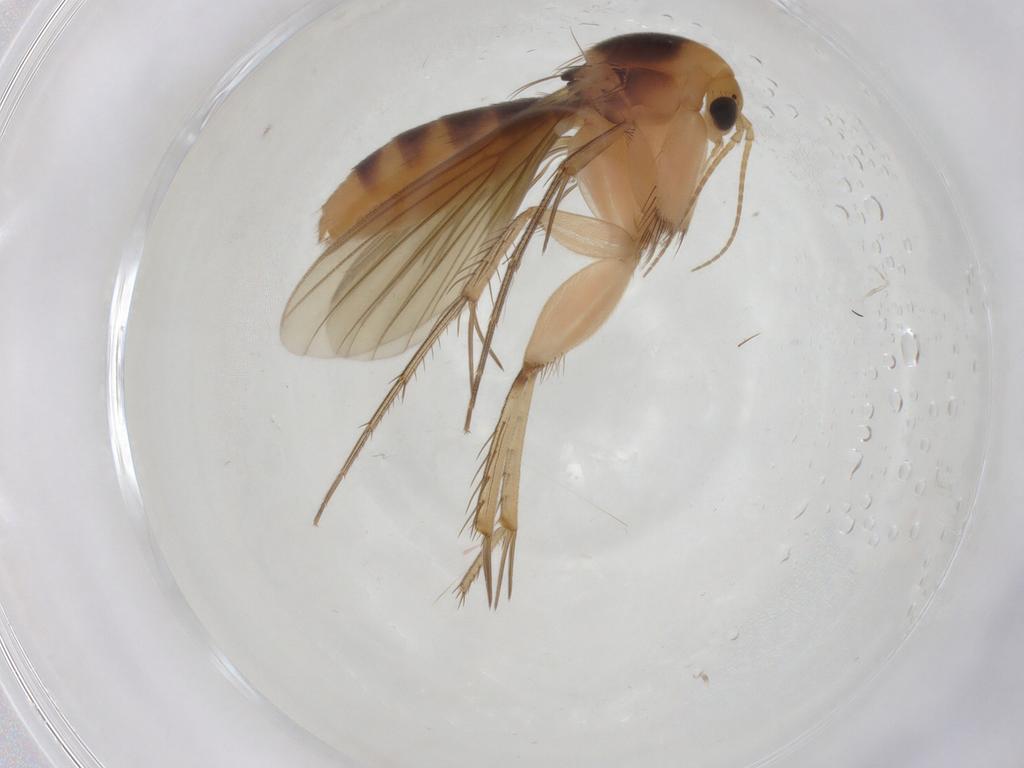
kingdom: Animalia
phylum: Arthropoda
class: Insecta
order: Diptera
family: Mycetophilidae
